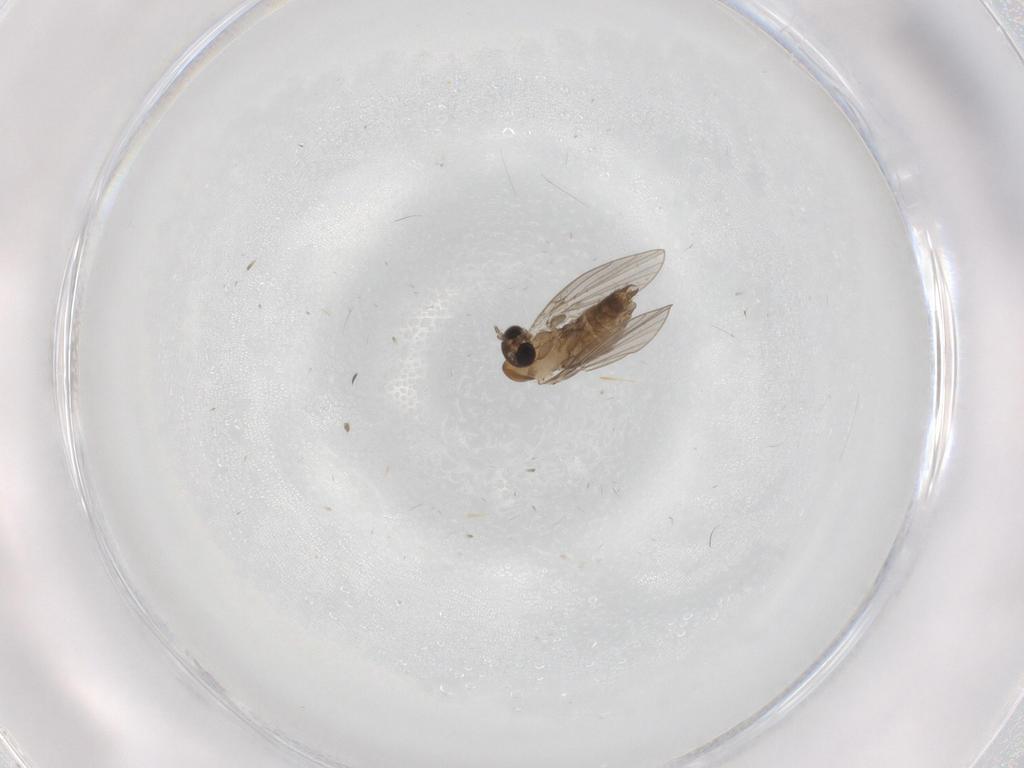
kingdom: Animalia
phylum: Arthropoda
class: Insecta
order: Diptera
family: Psychodidae
